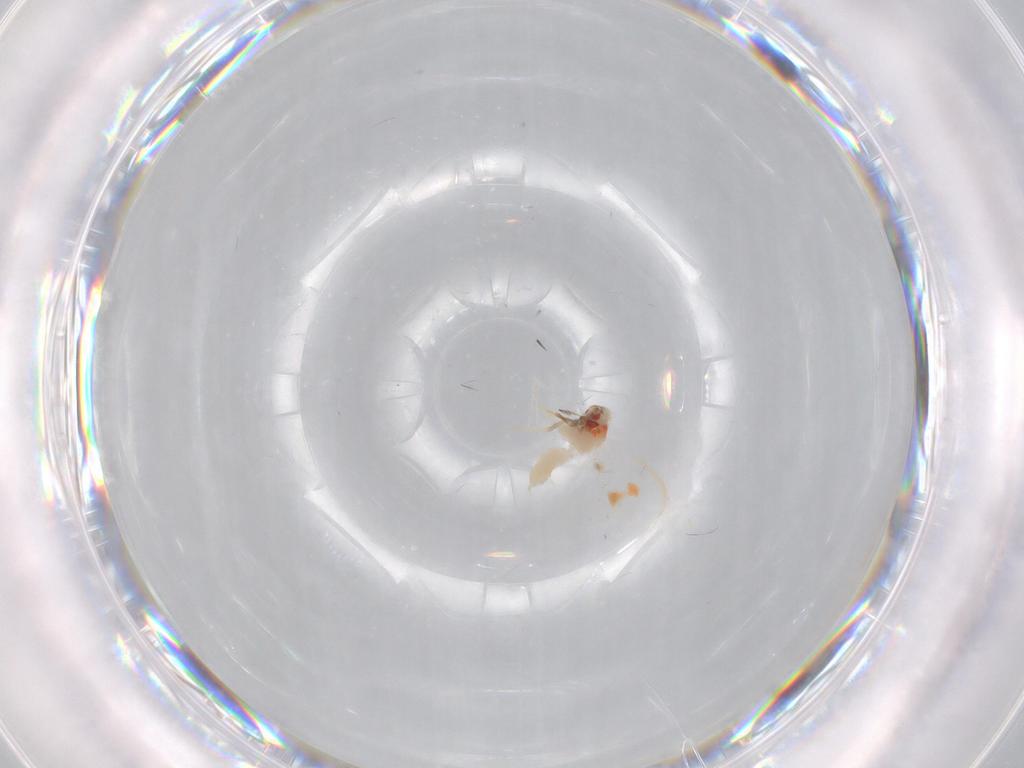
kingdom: Animalia
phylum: Arthropoda
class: Insecta
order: Hemiptera
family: Aleyrodidae
